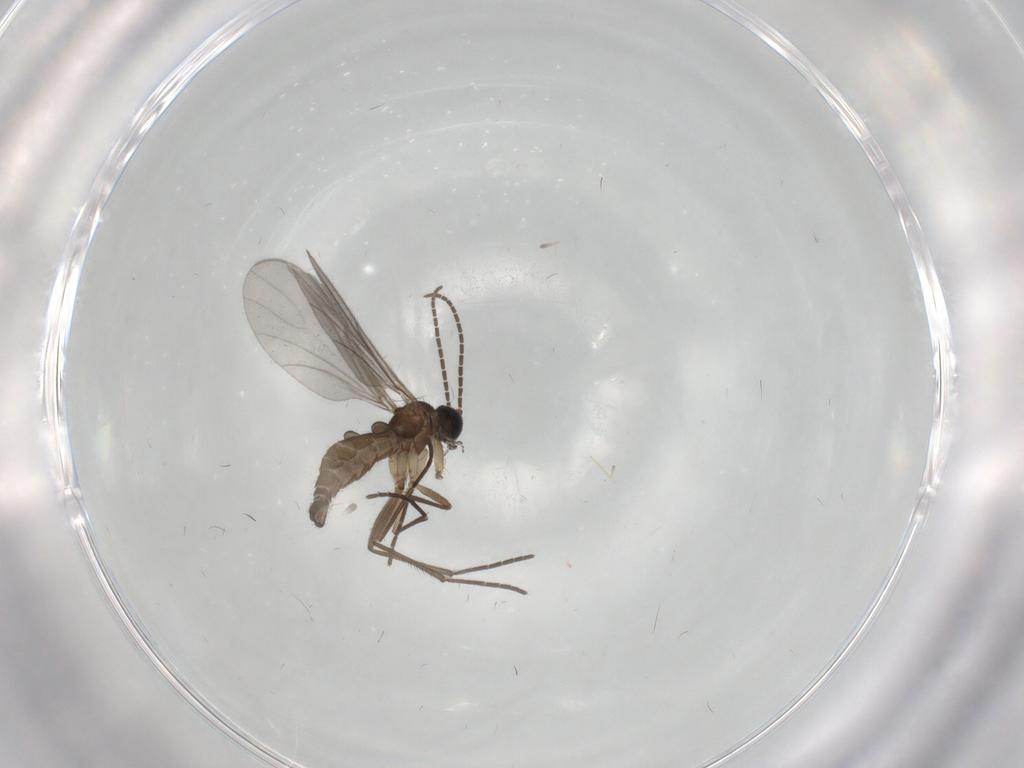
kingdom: Animalia
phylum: Arthropoda
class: Insecta
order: Diptera
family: Sciaridae
